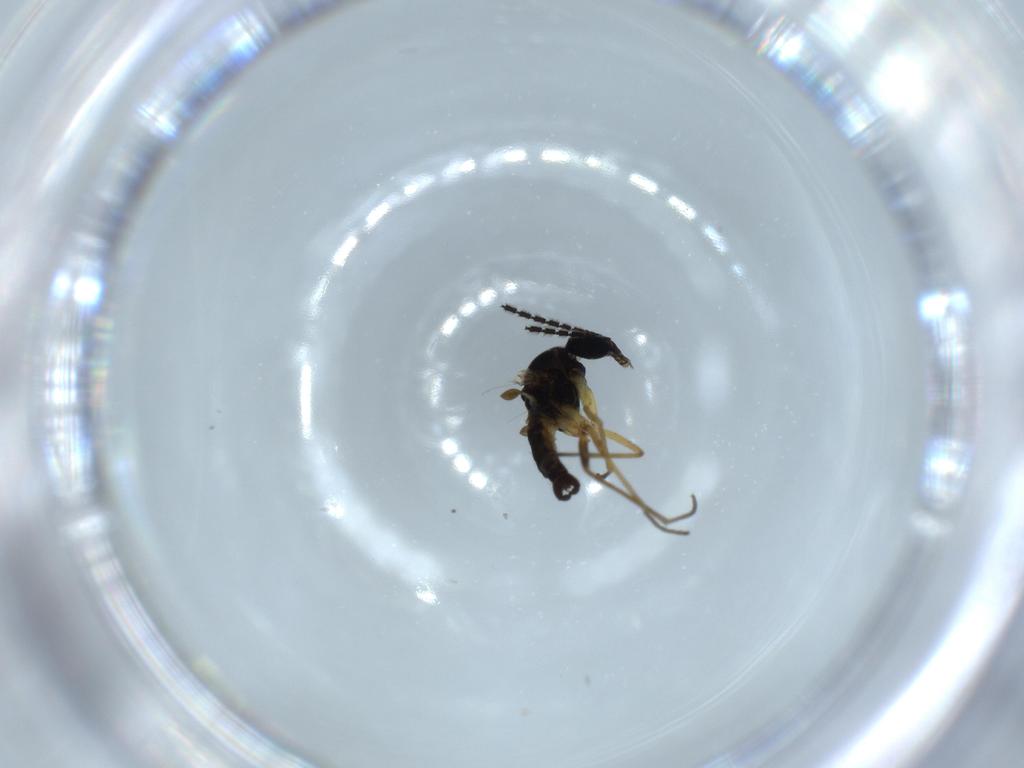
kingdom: Animalia
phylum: Arthropoda
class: Insecta
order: Diptera
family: Sciaridae
